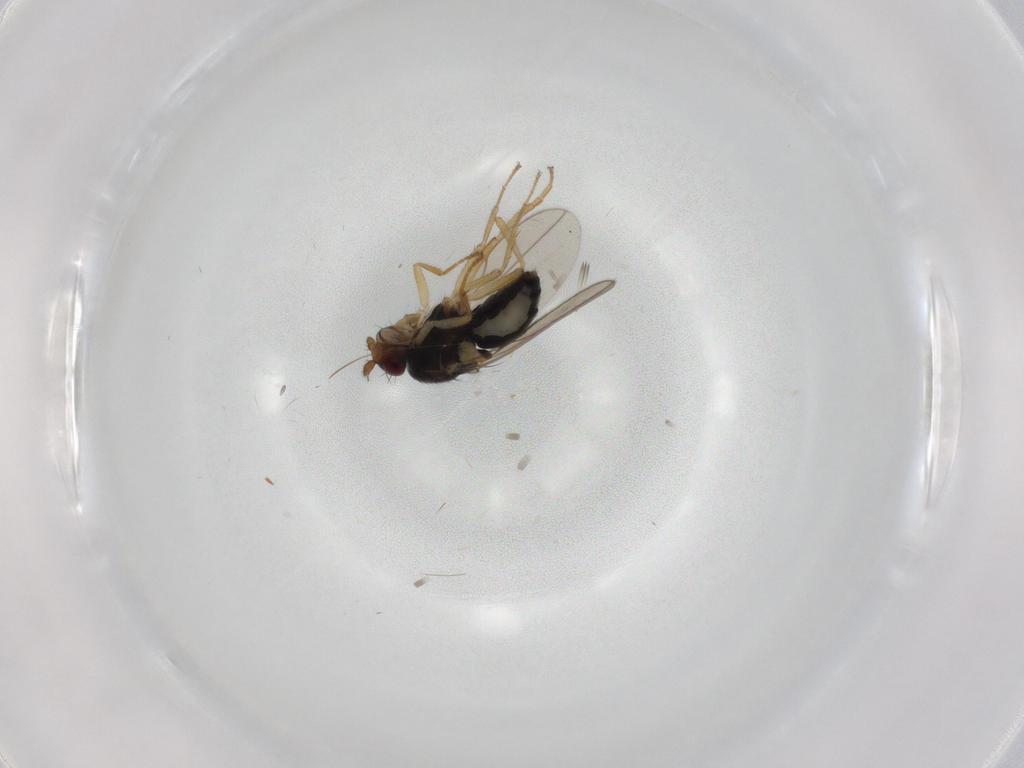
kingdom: Animalia
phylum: Arthropoda
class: Insecta
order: Diptera
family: Sphaeroceridae
